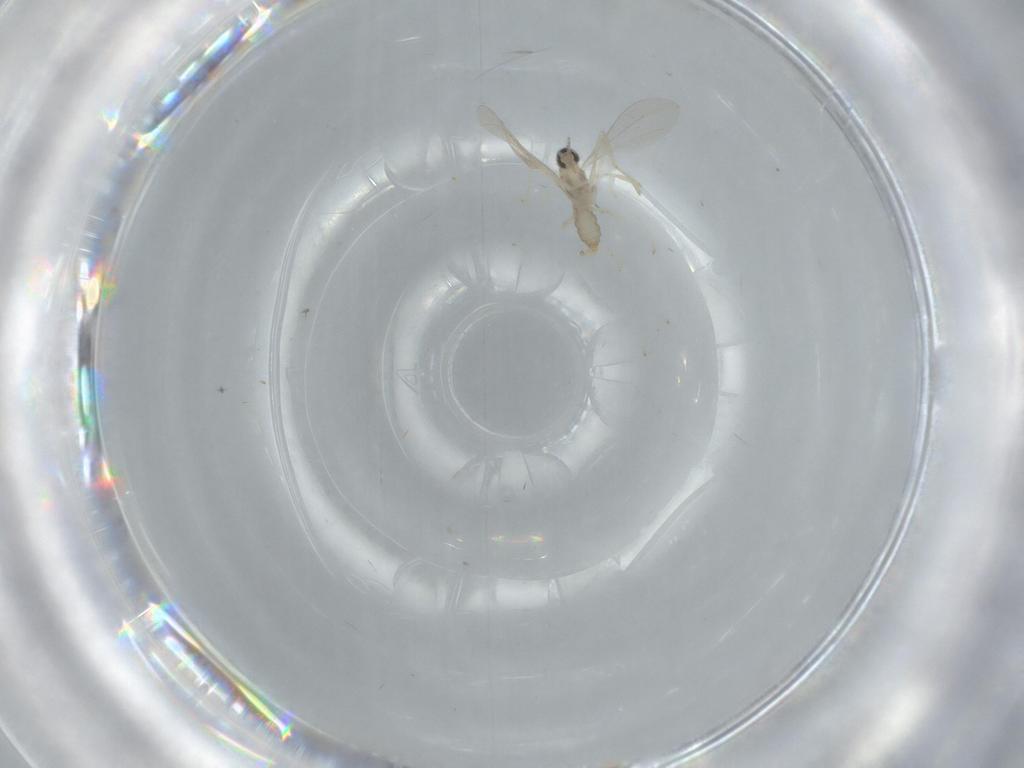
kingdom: Animalia
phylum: Arthropoda
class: Insecta
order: Diptera
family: Cecidomyiidae
